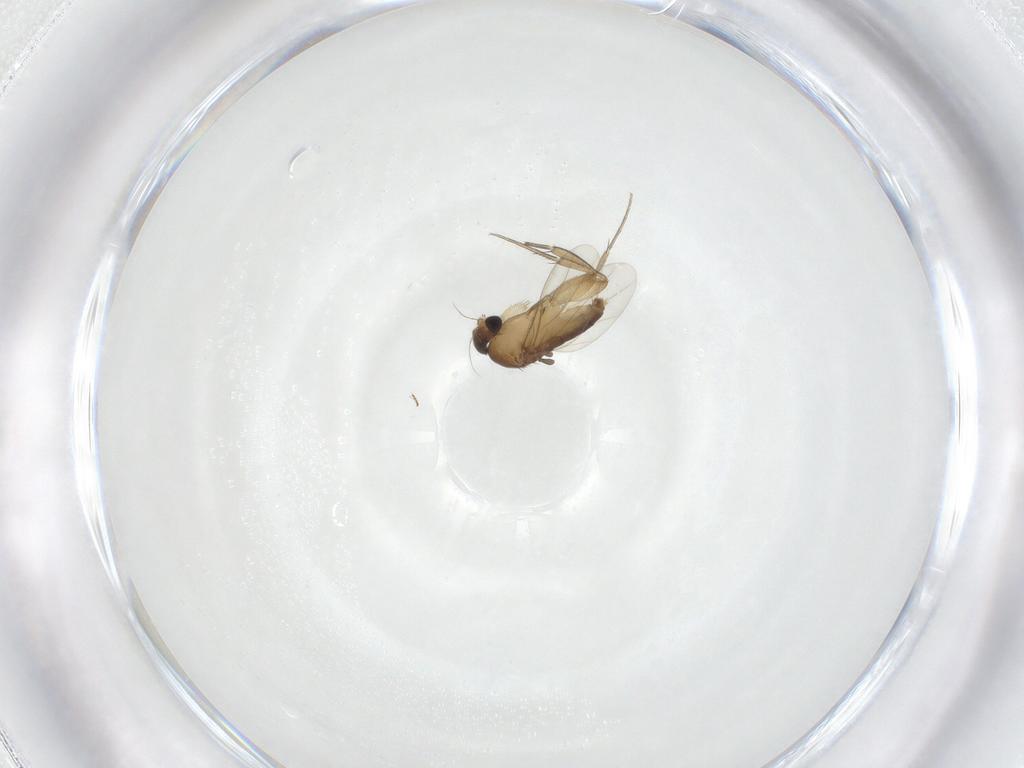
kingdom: Animalia
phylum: Arthropoda
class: Insecta
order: Diptera
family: Phoridae
